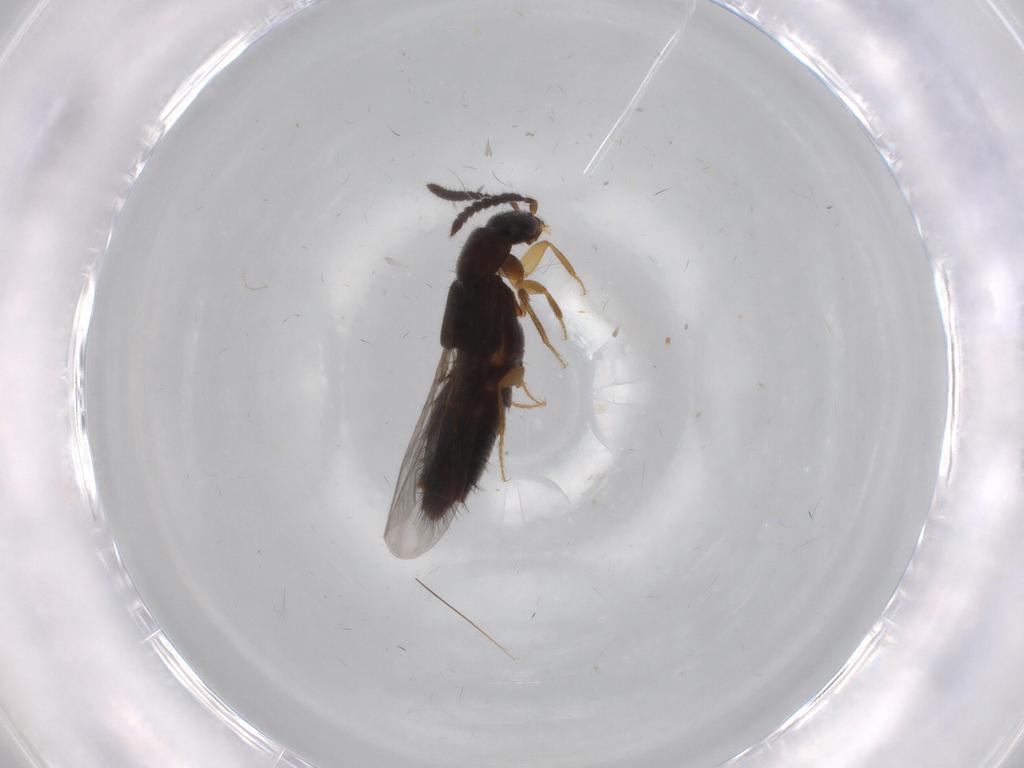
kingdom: Animalia
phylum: Arthropoda
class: Insecta
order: Coleoptera
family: Staphylinidae
